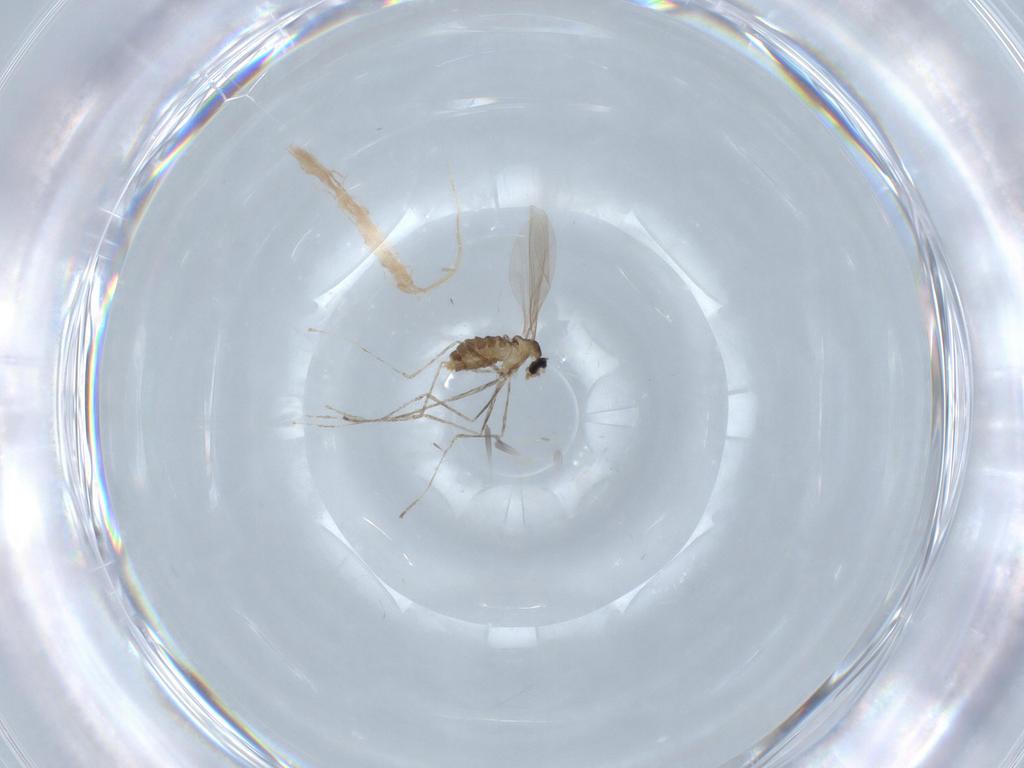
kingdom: Animalia
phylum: Arthropoda
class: Insecta
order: Diptera
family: Cecidomyiidae
